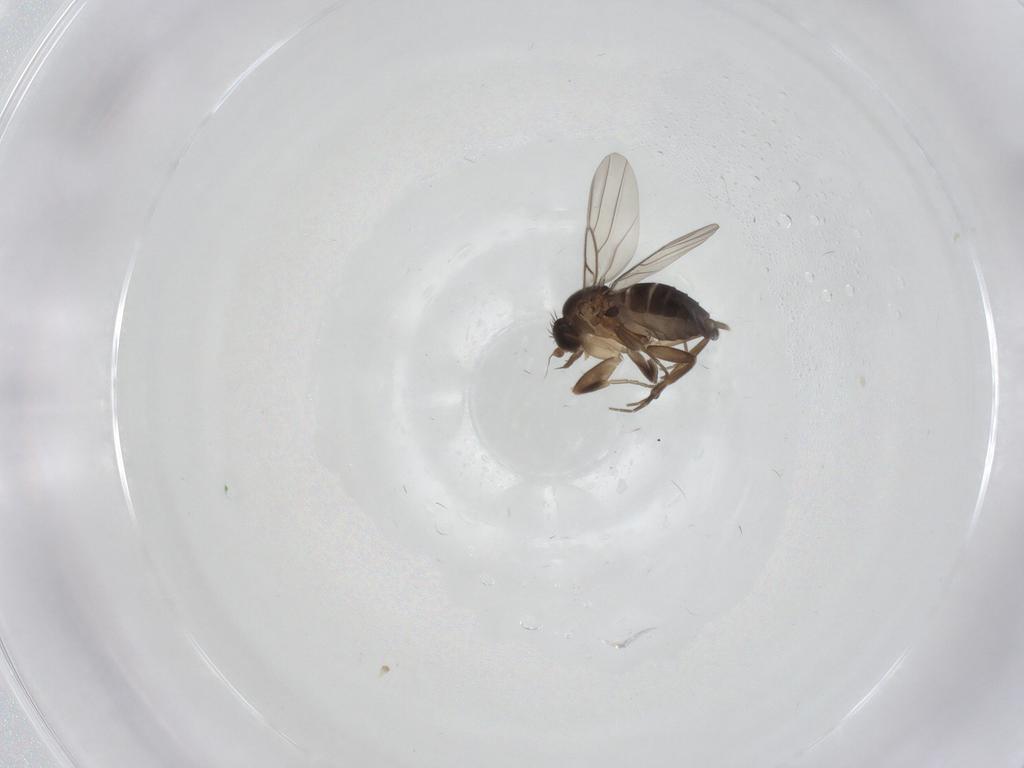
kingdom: Animalia
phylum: Arthropoda
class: Insecta
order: Diptera
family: Phoridae
